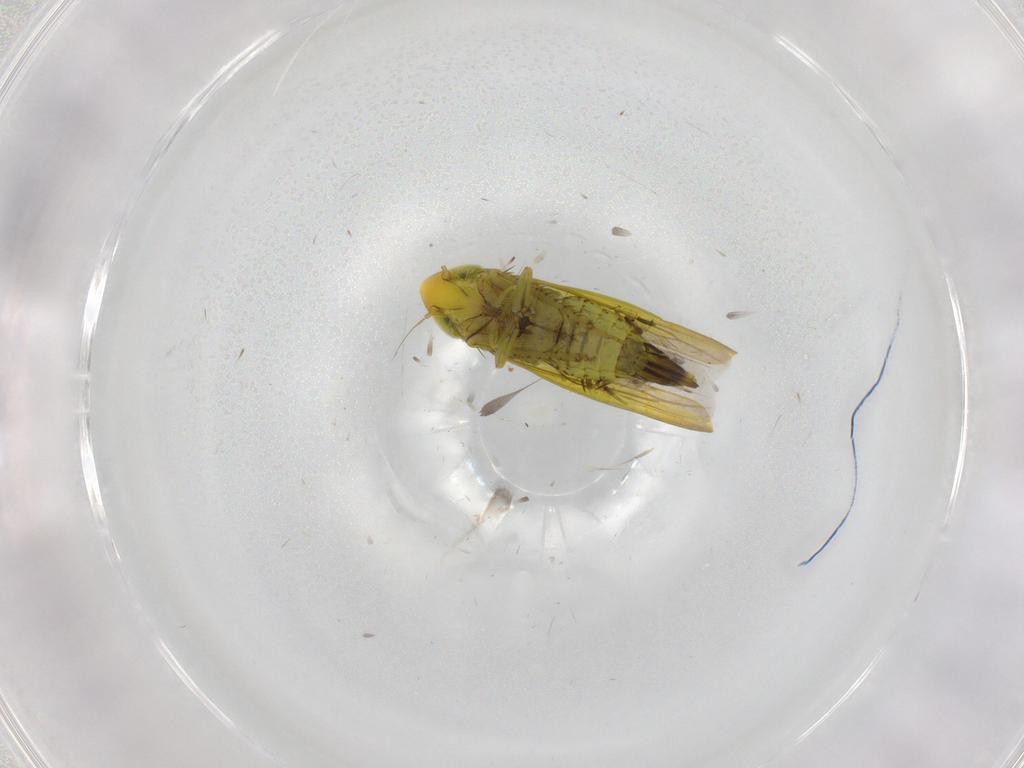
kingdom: Animalia
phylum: Arthropoda
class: Insecta
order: Hemiptera
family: Cicadellidae
